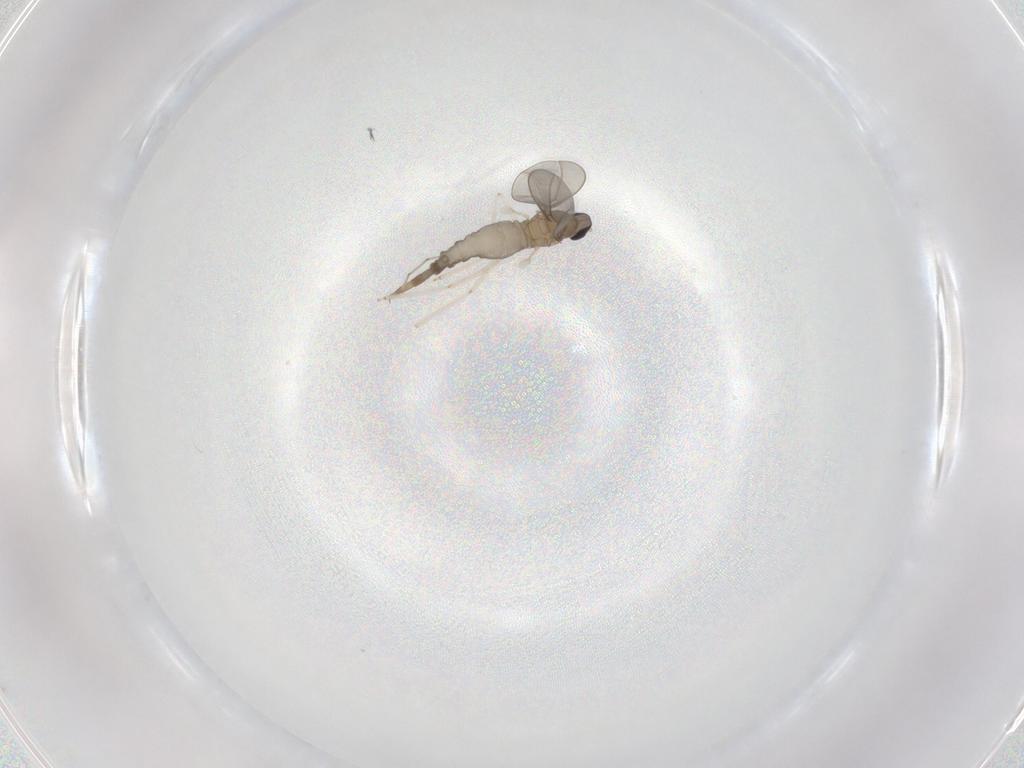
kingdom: Animalia
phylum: Arthropoda
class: Insecta
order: Diptera
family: Cecidomyiidae
